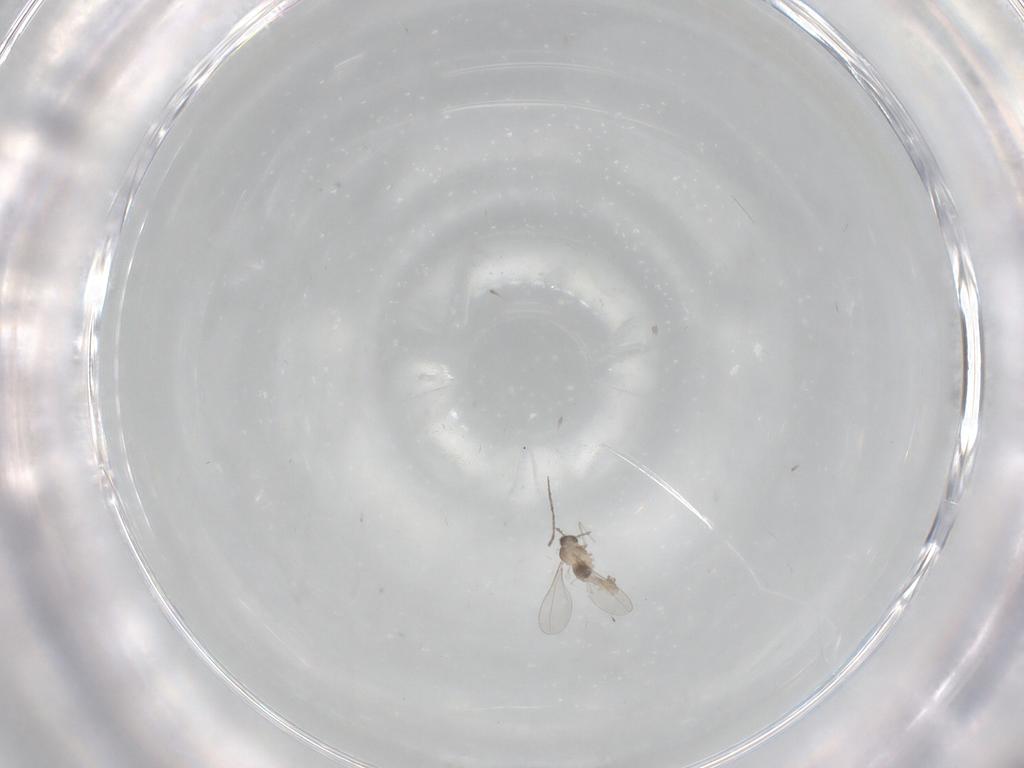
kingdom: Animalia
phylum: Arthropoda
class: Insecta
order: Diptera
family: Cecidomyiidae
